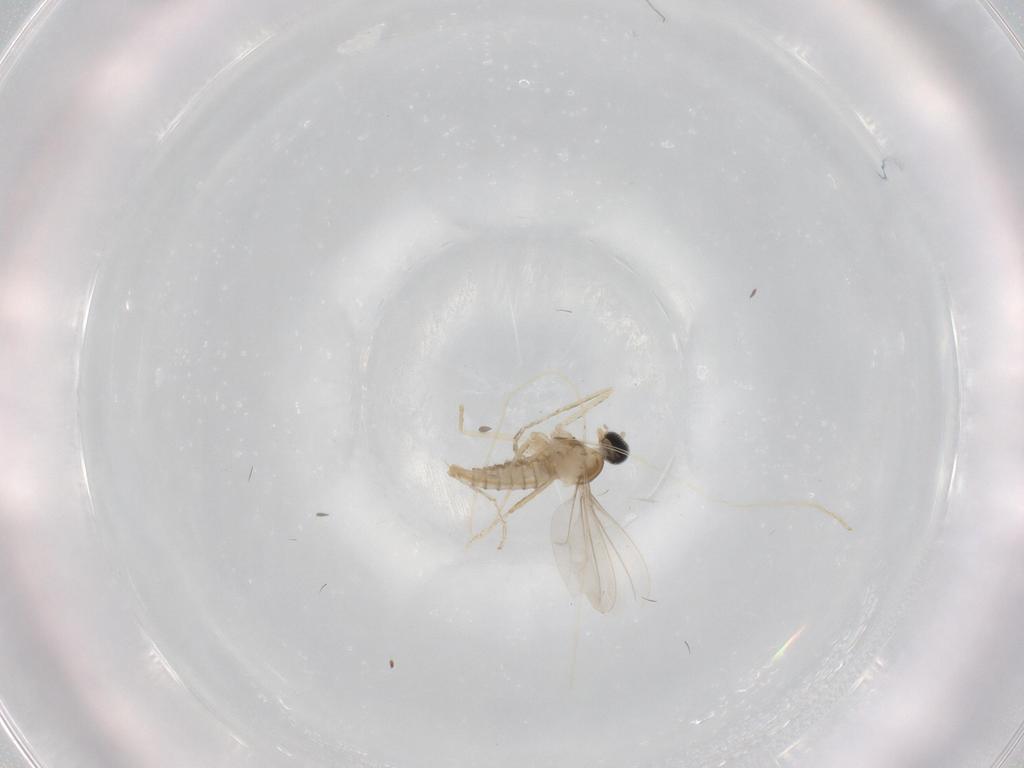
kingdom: Animalia
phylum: Arthropoda
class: Insecta
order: Diptera
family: Cecidomyiidae
